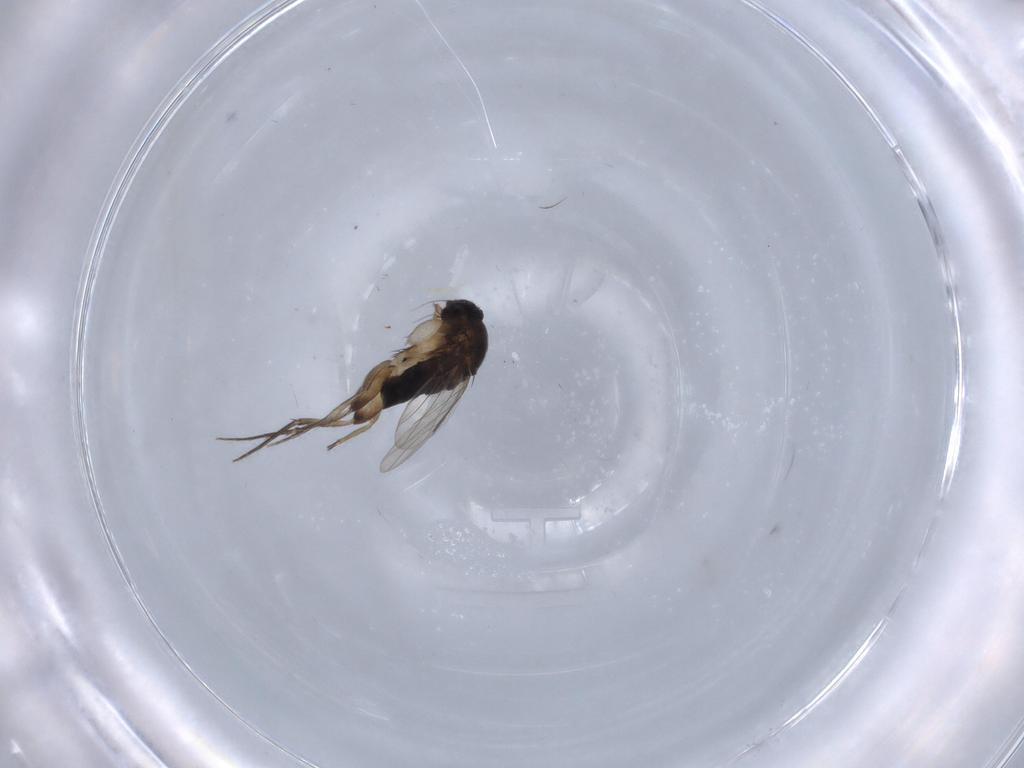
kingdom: Animalia
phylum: Arthropoda
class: Insecta
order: Diptera
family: Phoridae
